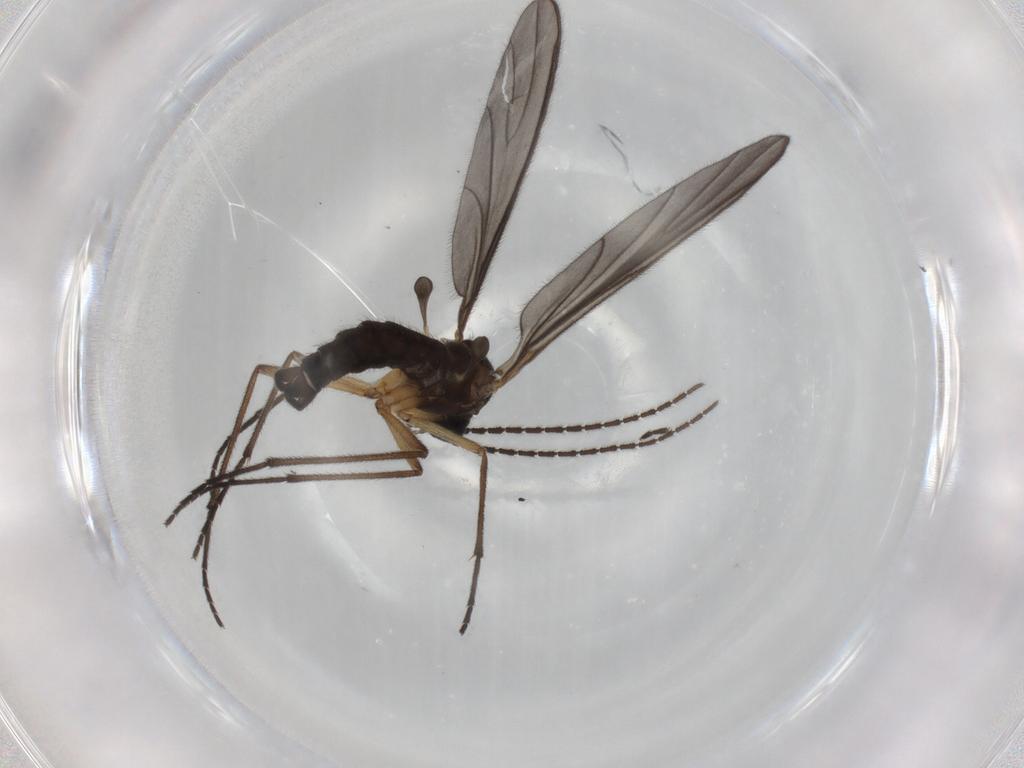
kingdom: Animalia
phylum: Arthropoda
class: Insecta
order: Diptera
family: Sciaridae
